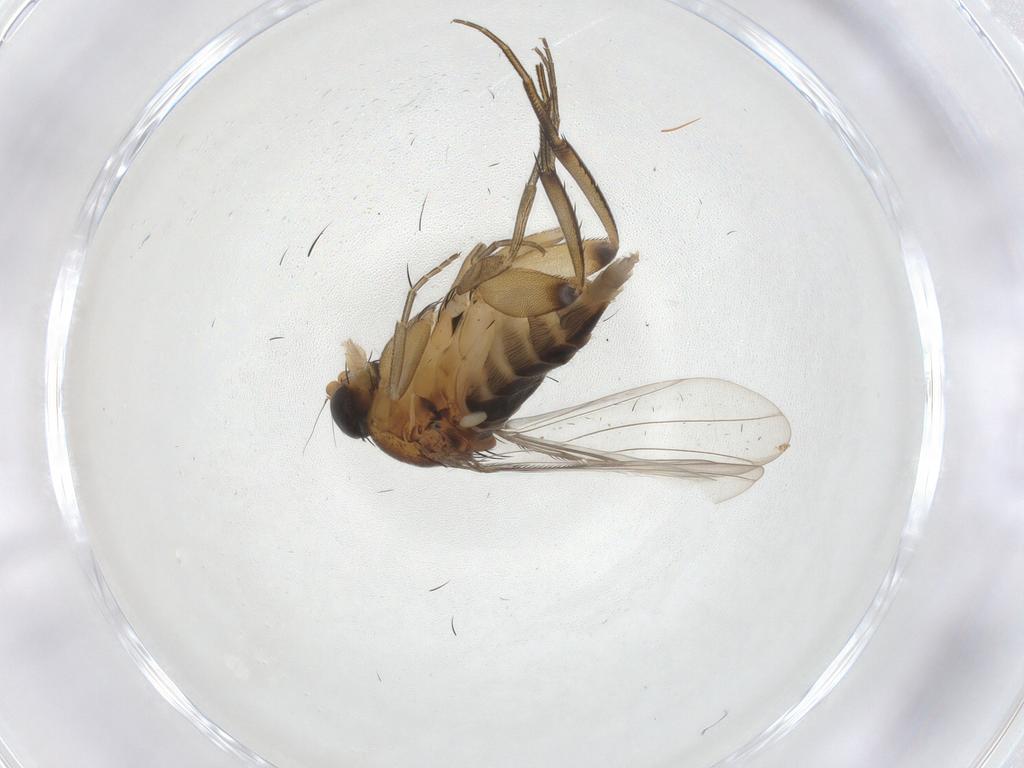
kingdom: Animalia
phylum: Arthropoda
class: Insecta
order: Diptera
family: Phoridae
